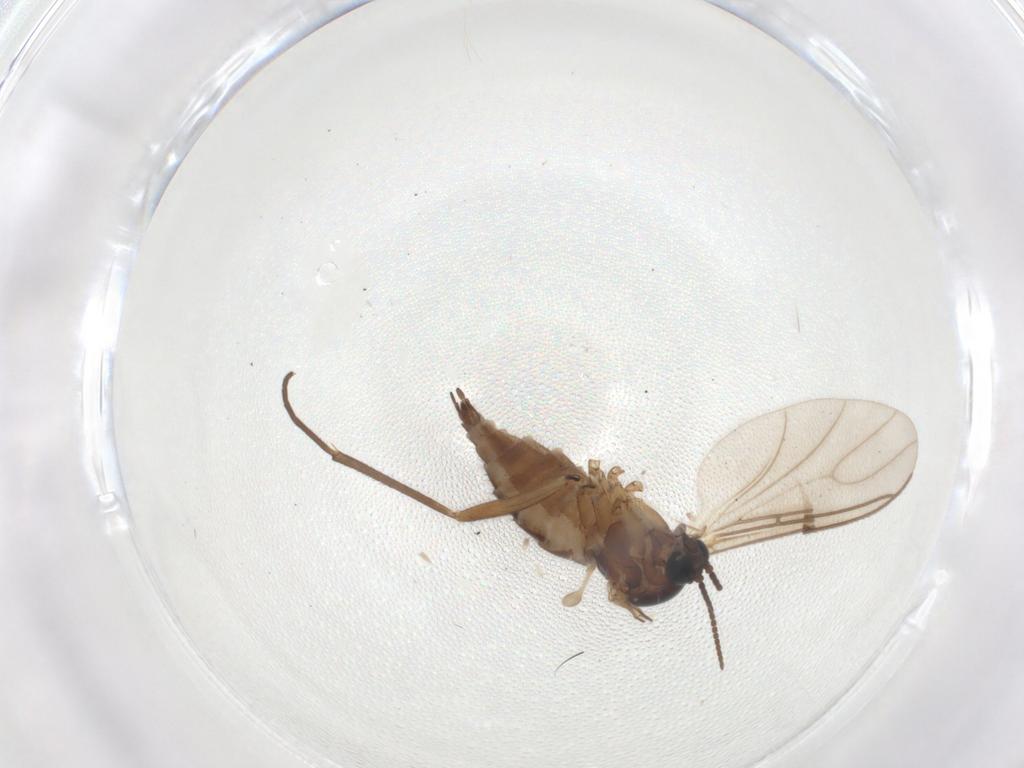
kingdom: Animalia
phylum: Arthropoda
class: Insecta
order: Diptera
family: Sciaridae
